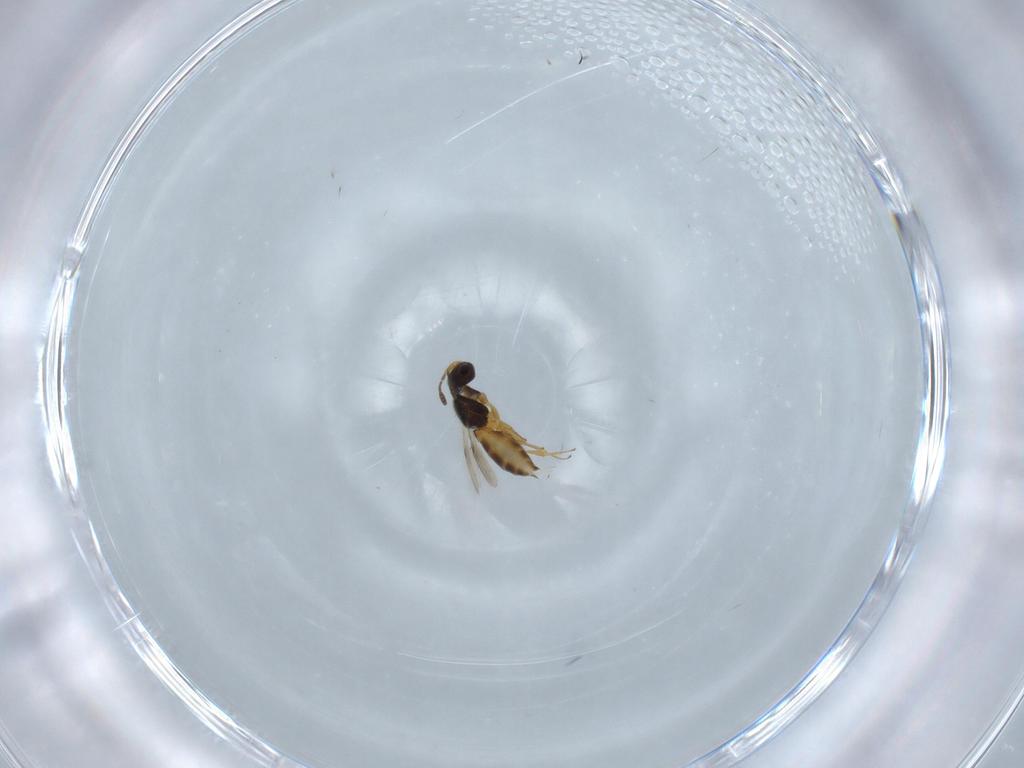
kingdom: Animalia
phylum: Arthropoda
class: Insecta
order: Hymenoptera
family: Scelionidae
